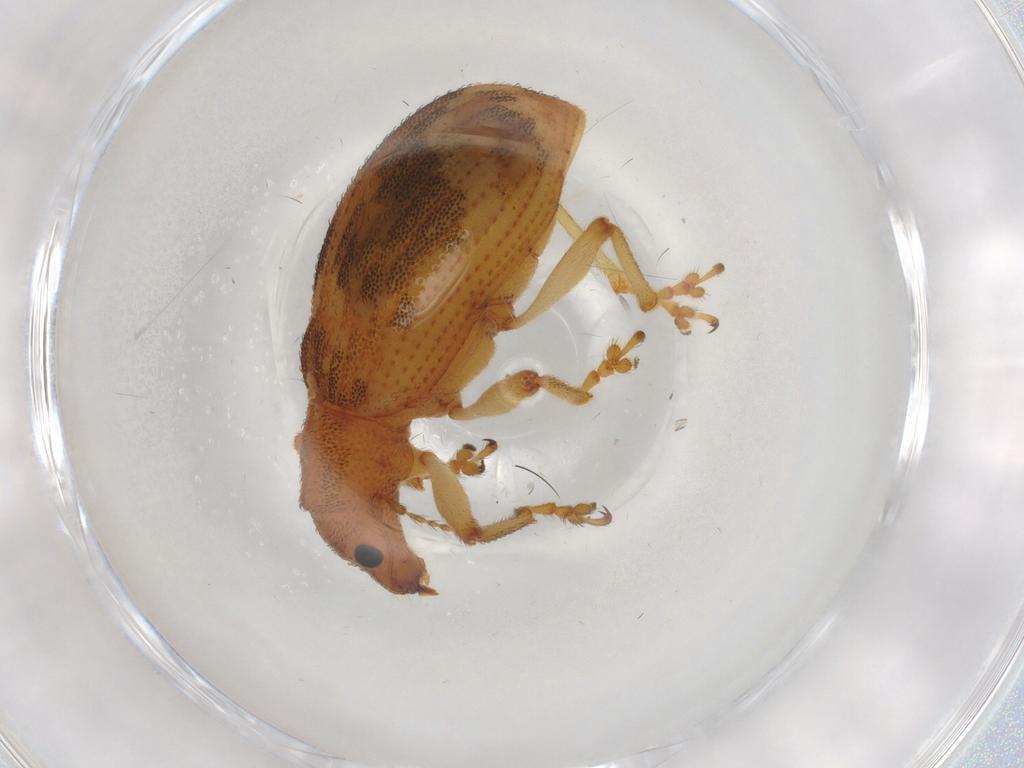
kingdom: Animalia
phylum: Arthropoda
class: Insecta
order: Coleoptera
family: Curculionidae
